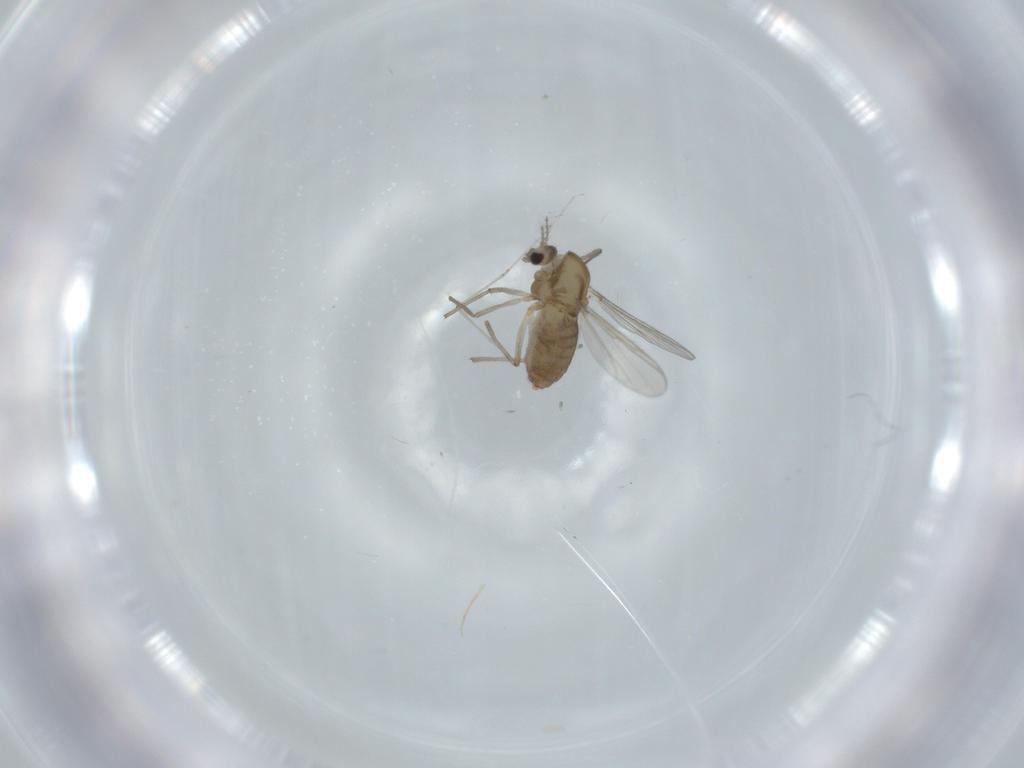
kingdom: Animalia
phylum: Arthropoda
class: Insecta
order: Diptera
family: Chironomidae
